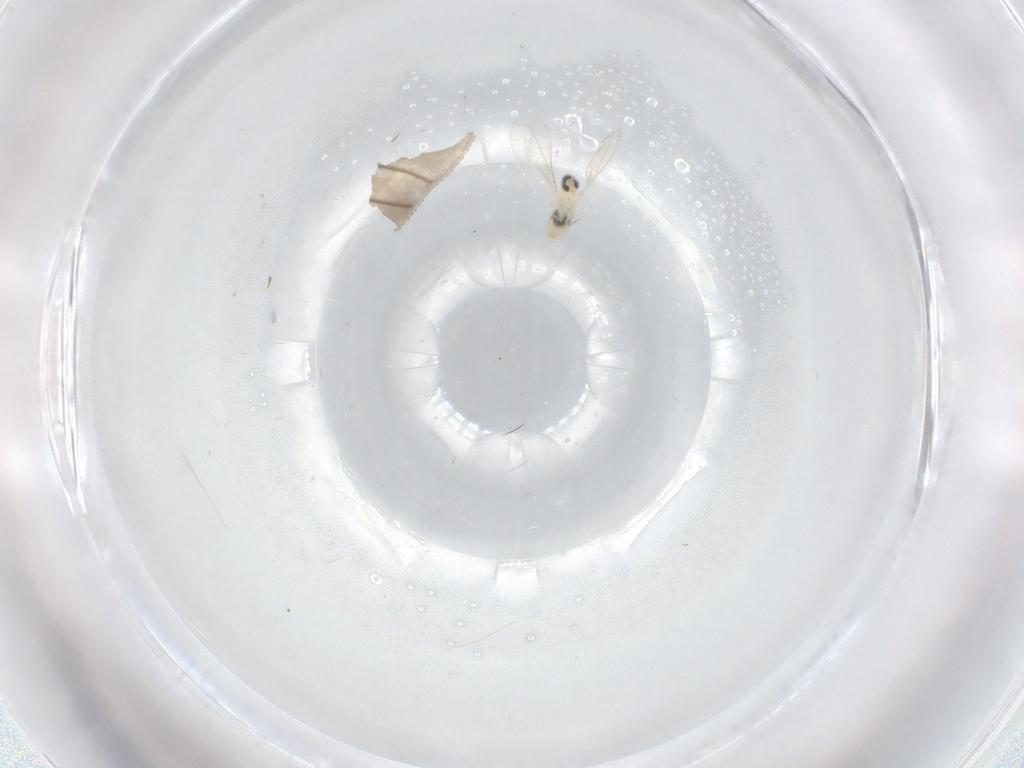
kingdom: Animalia
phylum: Arthropoda
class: Insecta
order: Diptera
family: Cecidomyiidae
